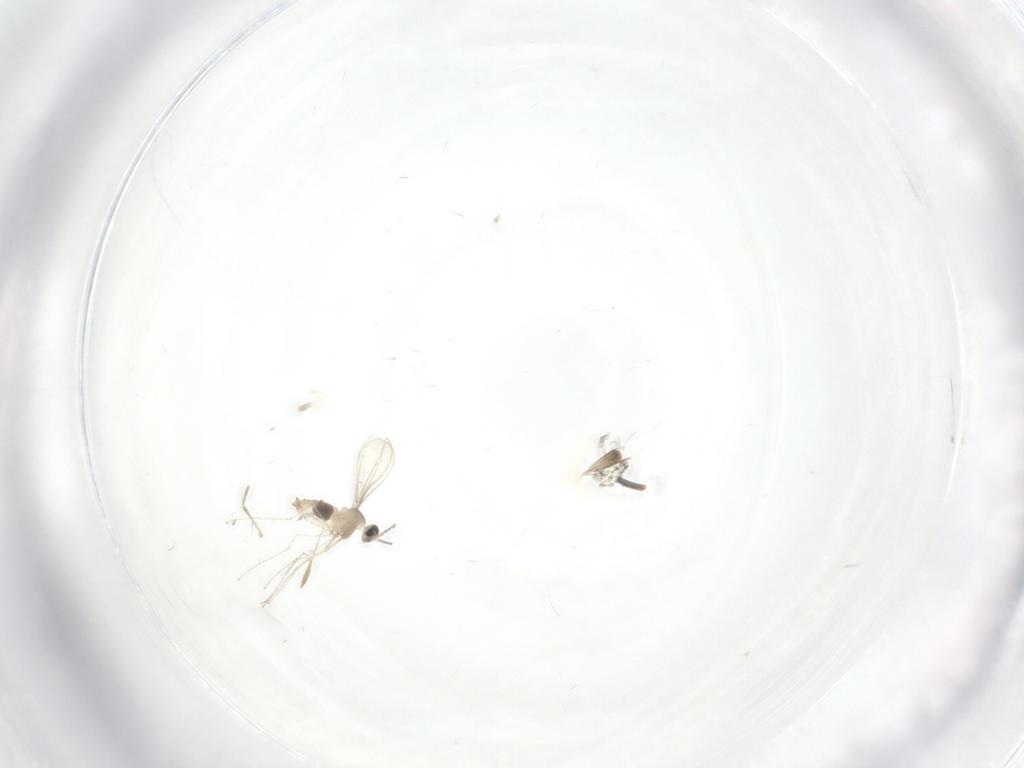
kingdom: Animalia
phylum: Arthropoda
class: Insecta
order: Diptera
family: Cecidomyiidae
